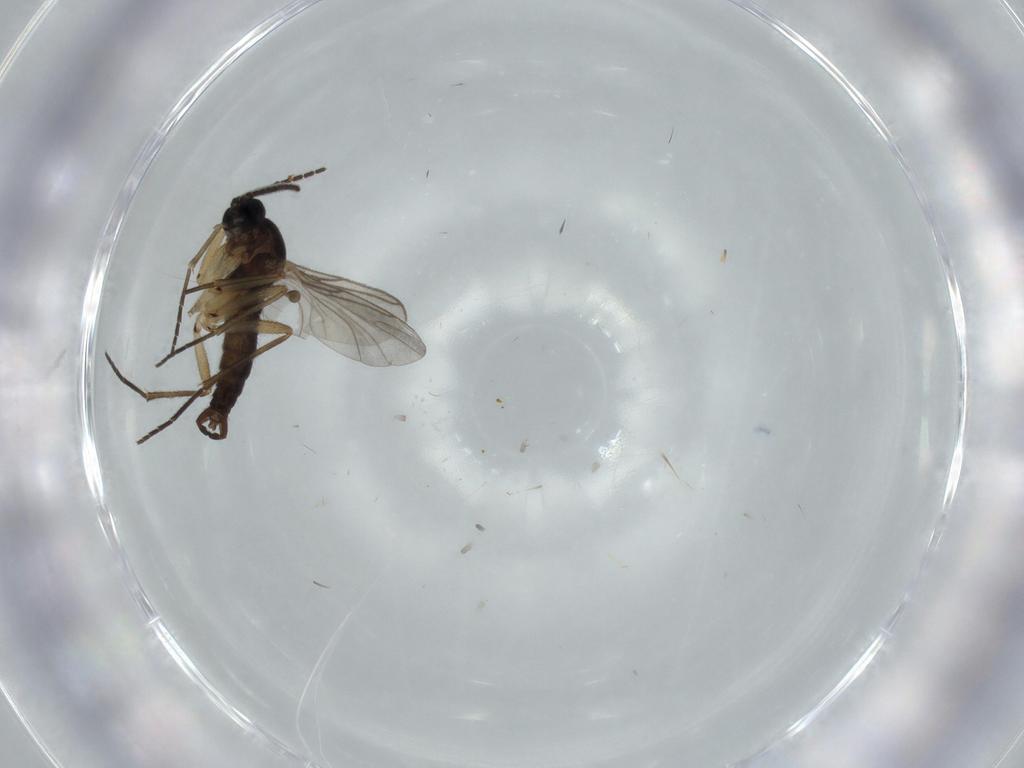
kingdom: Animalia
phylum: Arthropoda
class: Insecta
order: Diptera
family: Sciaridae
